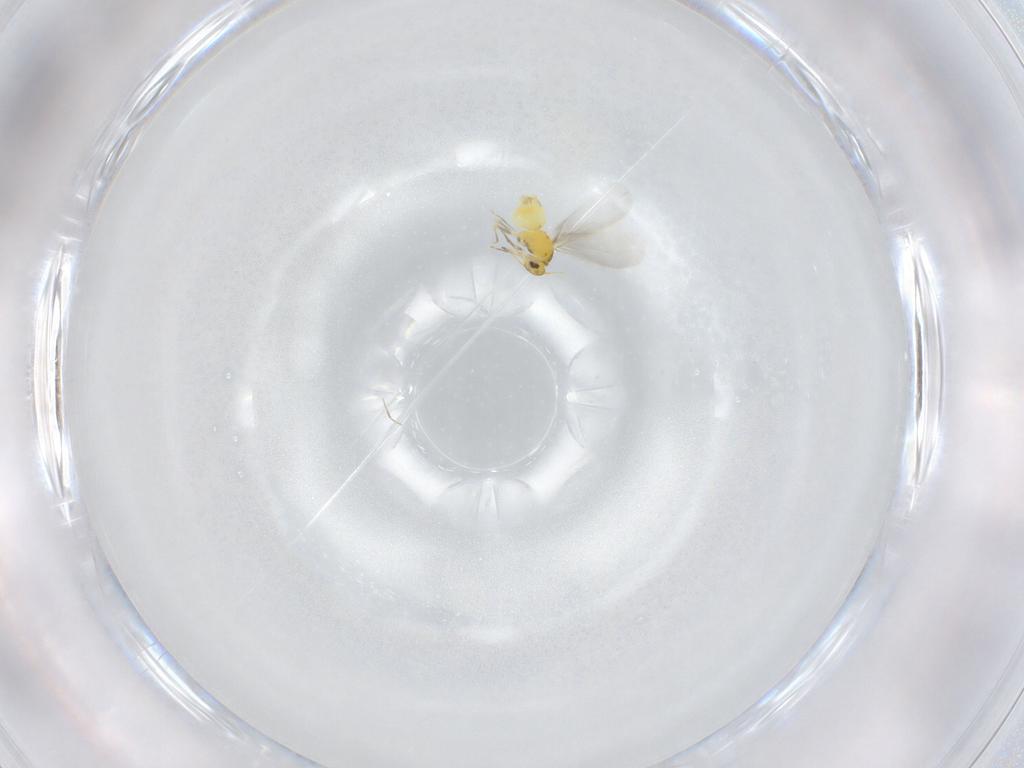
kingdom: Animalia
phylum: Arthropoda
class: Insecta
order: Hemiptera
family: Aleyrodidae
